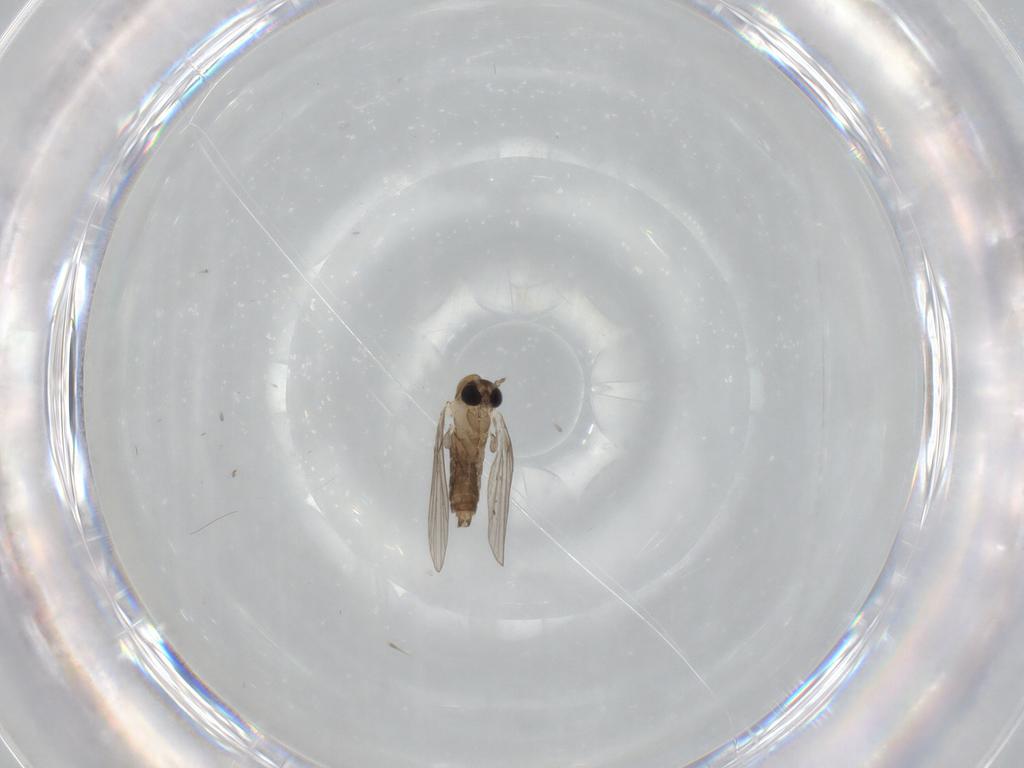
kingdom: Animalia
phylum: Arthropoda
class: Insecta
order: Diptera
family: Psychodidae
